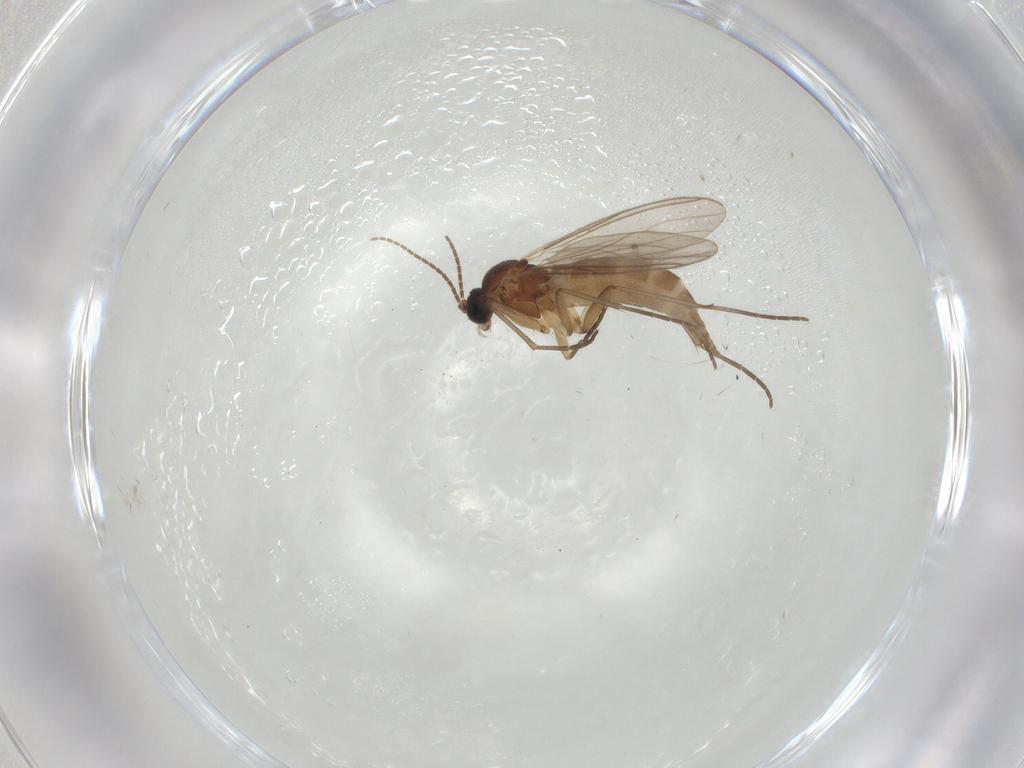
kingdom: Animalia
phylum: Arthropoda
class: Insecta
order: Diptera
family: Sciaridae
